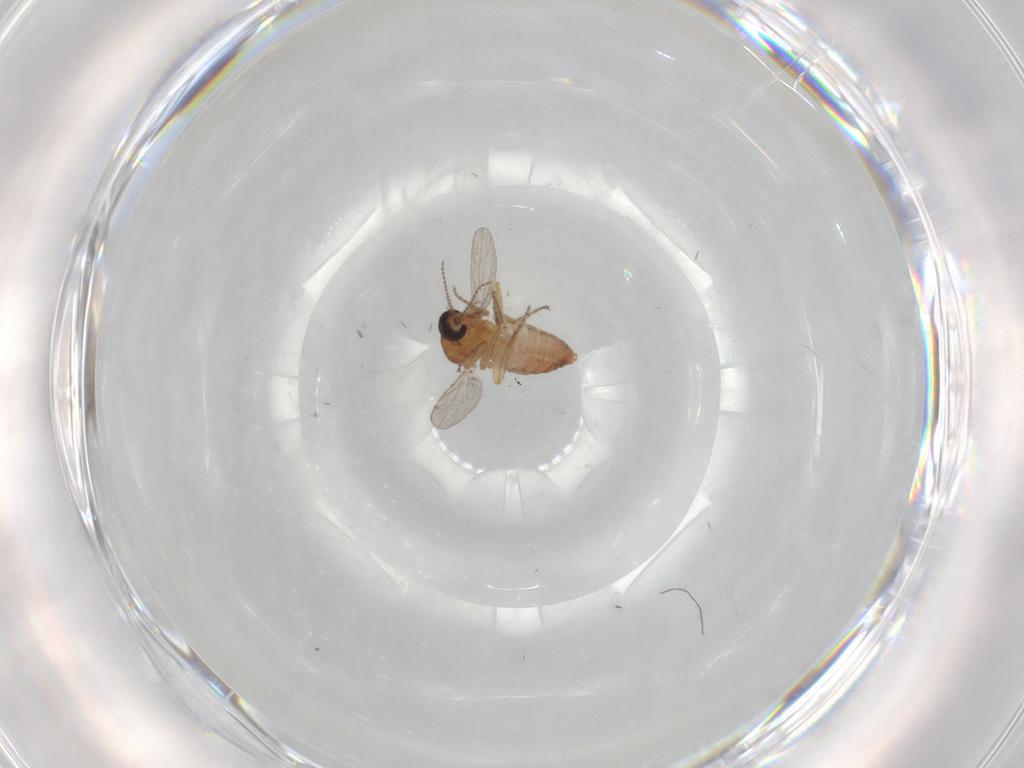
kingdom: Animalia
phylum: Arthropoda
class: Insecta
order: Diptera
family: Ceratopogonidae
